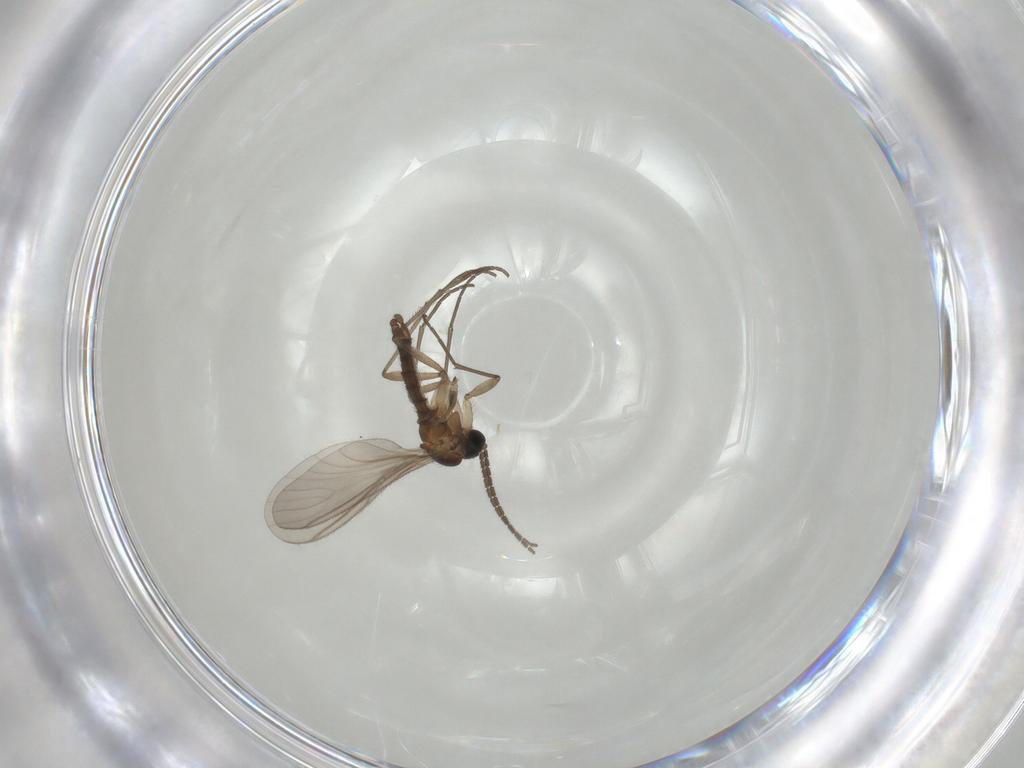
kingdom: Animalia
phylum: Arthropoda
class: Insecta
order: Diptera
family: Sciaridae
